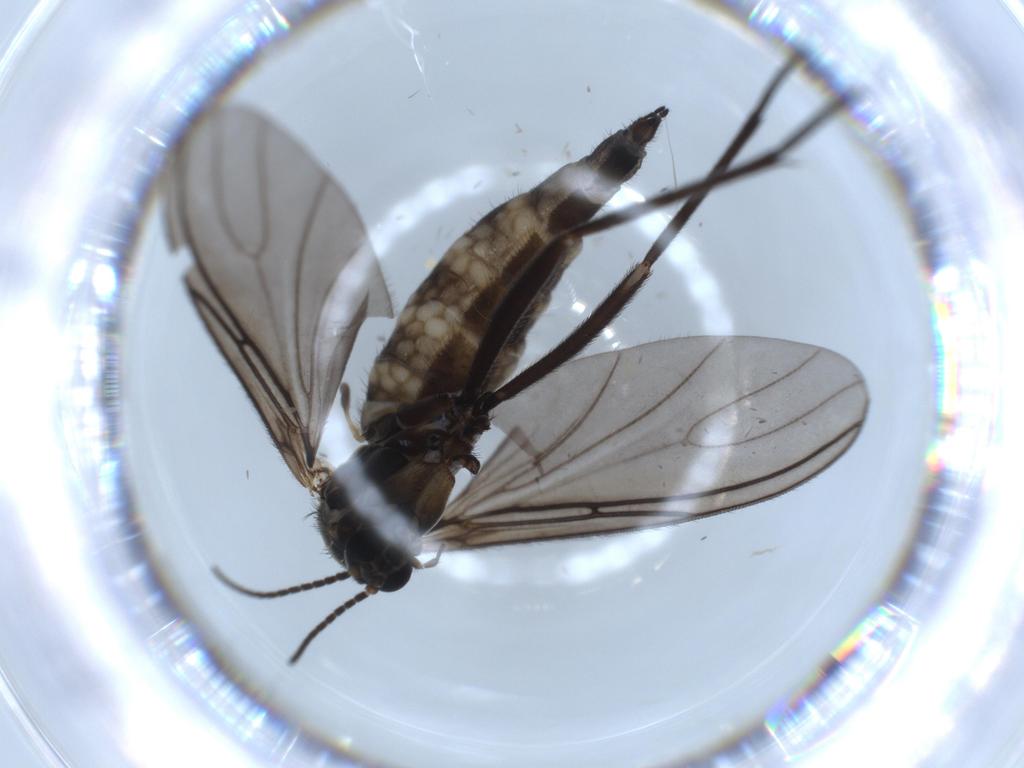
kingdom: Animalia
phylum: Arthropoda
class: Insecta
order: Diptera
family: Sciaridae
